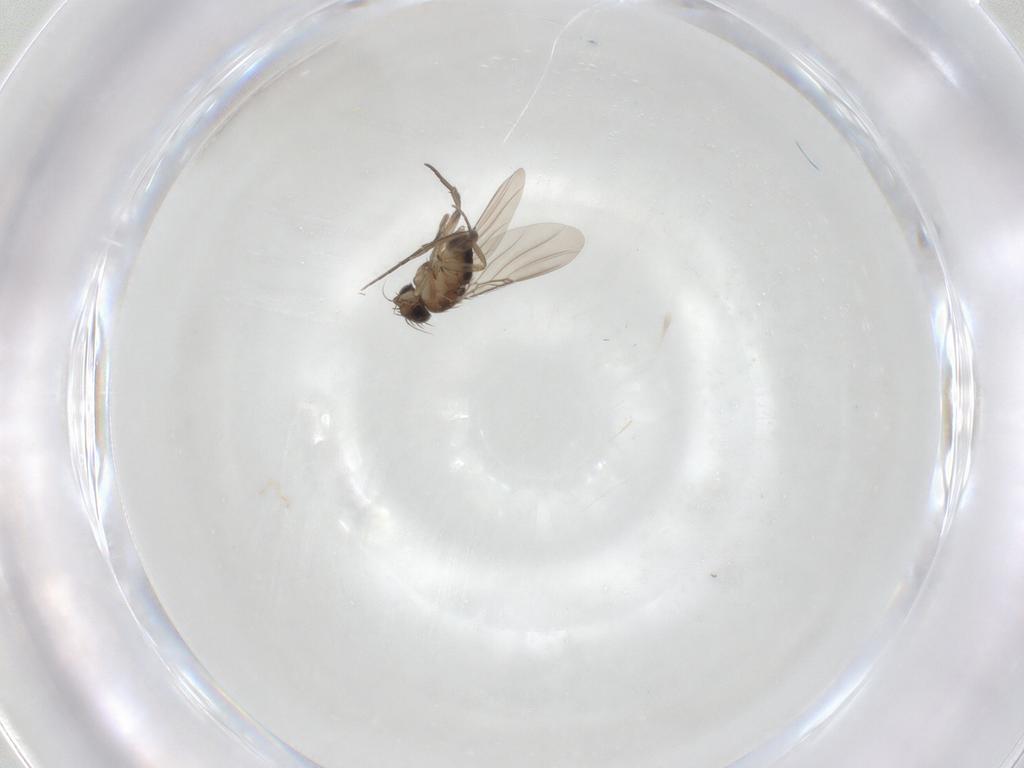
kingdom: Animalia
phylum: Arthropoda
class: Insecta
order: Diptera
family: Phoridae
